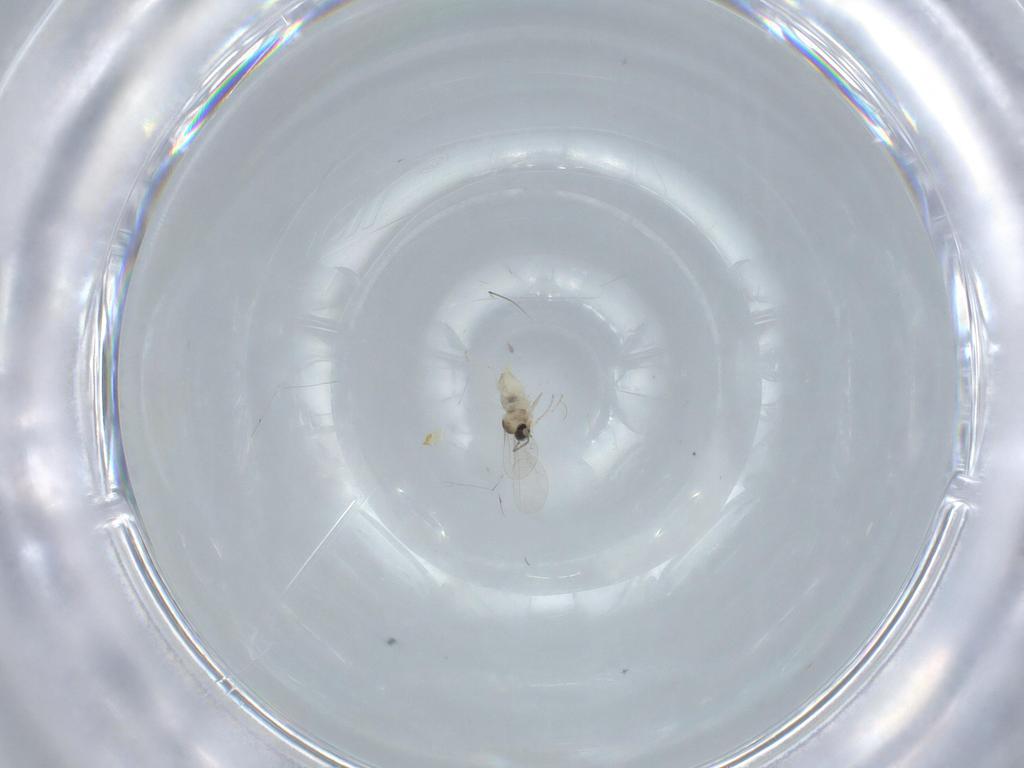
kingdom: Animalia
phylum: Arthropoda
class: Insecta
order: Diptera
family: Cecidomyiidae
